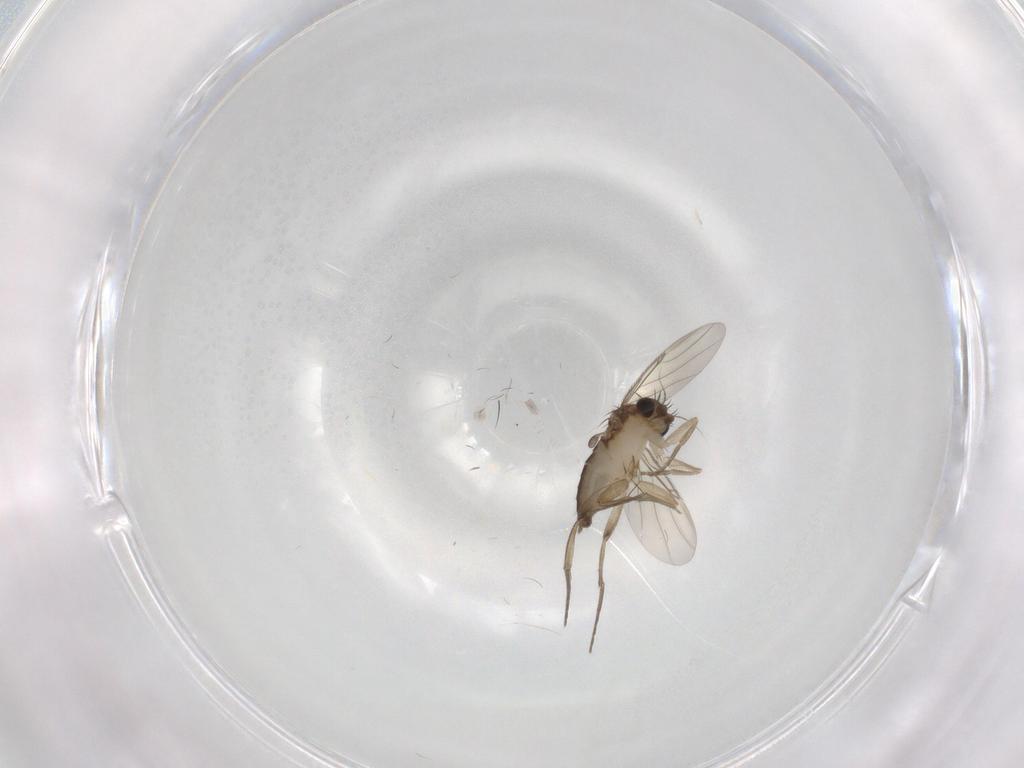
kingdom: Animalia
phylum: Arthropoda
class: Insecta
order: Diptera
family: Phoridae
